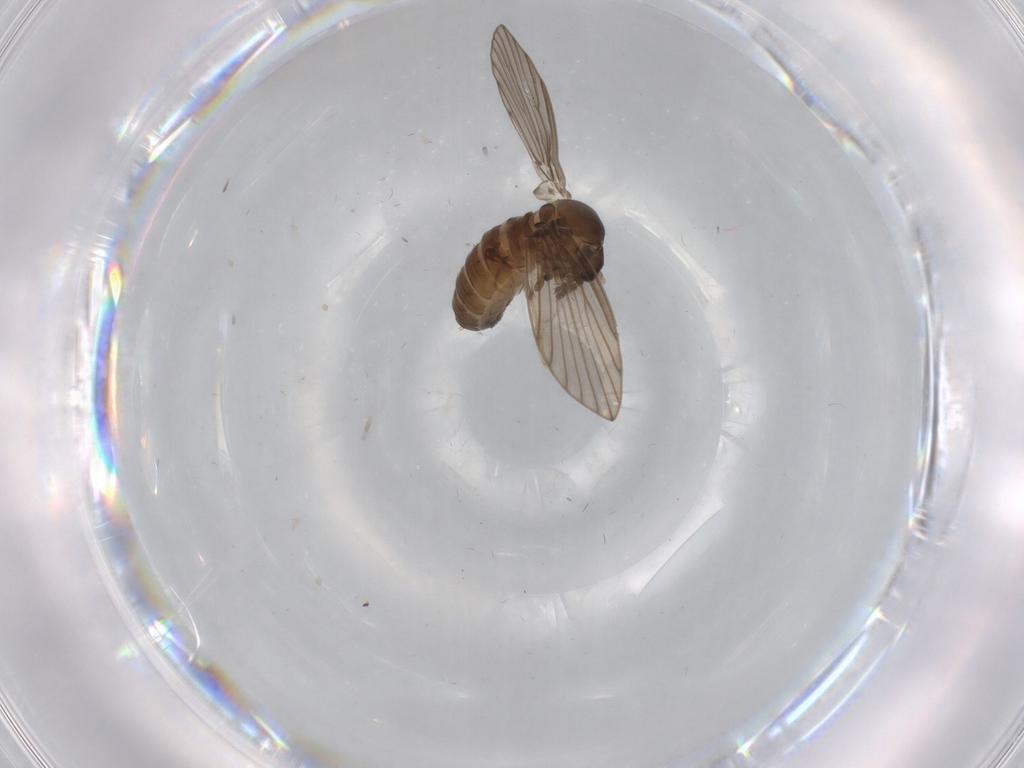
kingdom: Animalia
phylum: Arthropoda
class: Insecta
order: Diptera
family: Psychodidae
